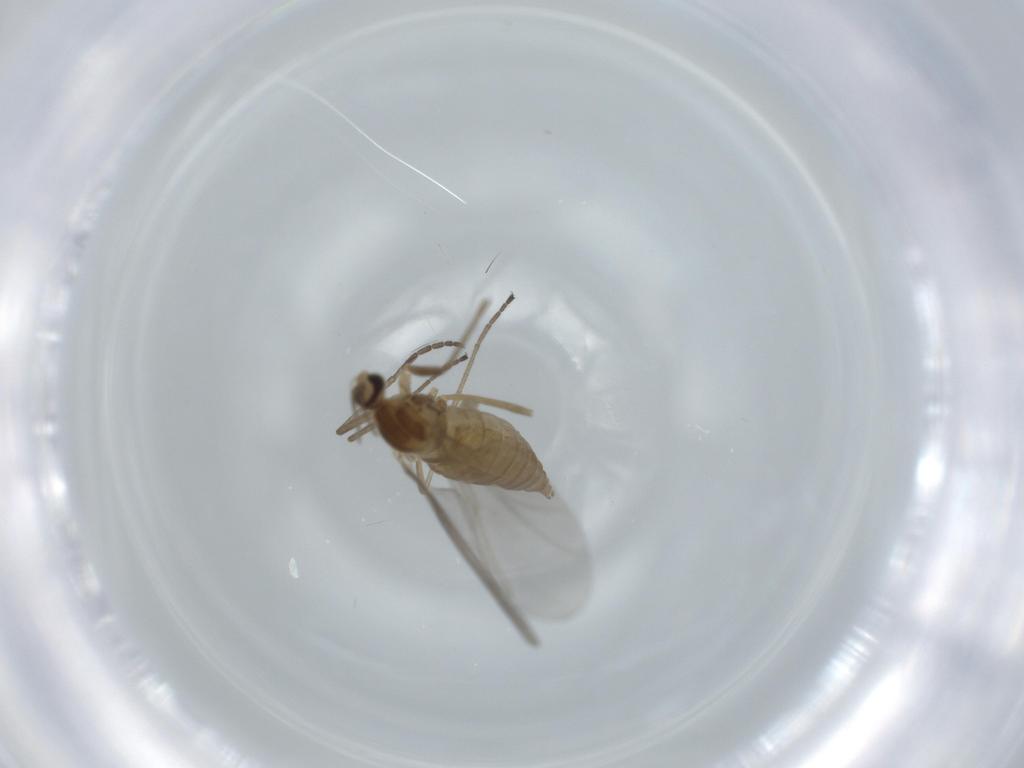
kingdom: Animalia
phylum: Arthropoda
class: Insecta
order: Diptera
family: Cecidomyiidae
